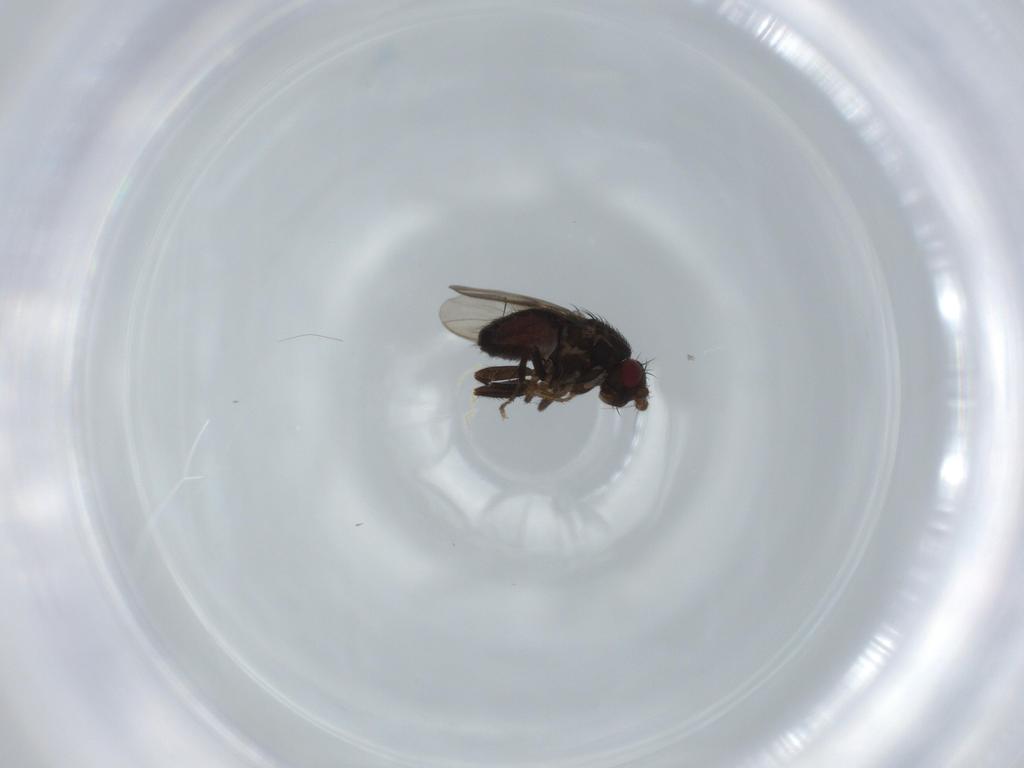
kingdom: Animalia
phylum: Arthropoda
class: Insecta
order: Diptera
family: Sphaeroceridae
